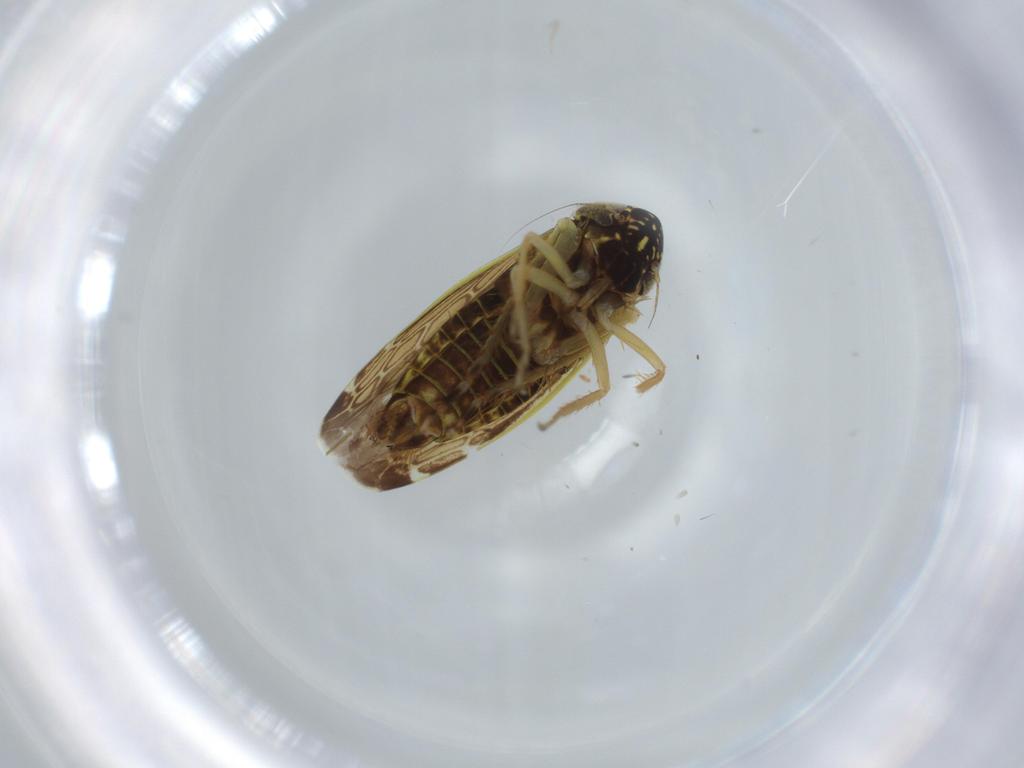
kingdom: Animalia
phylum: Arthropoda
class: Insecta
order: Hemiptera
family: Cicadellidae
